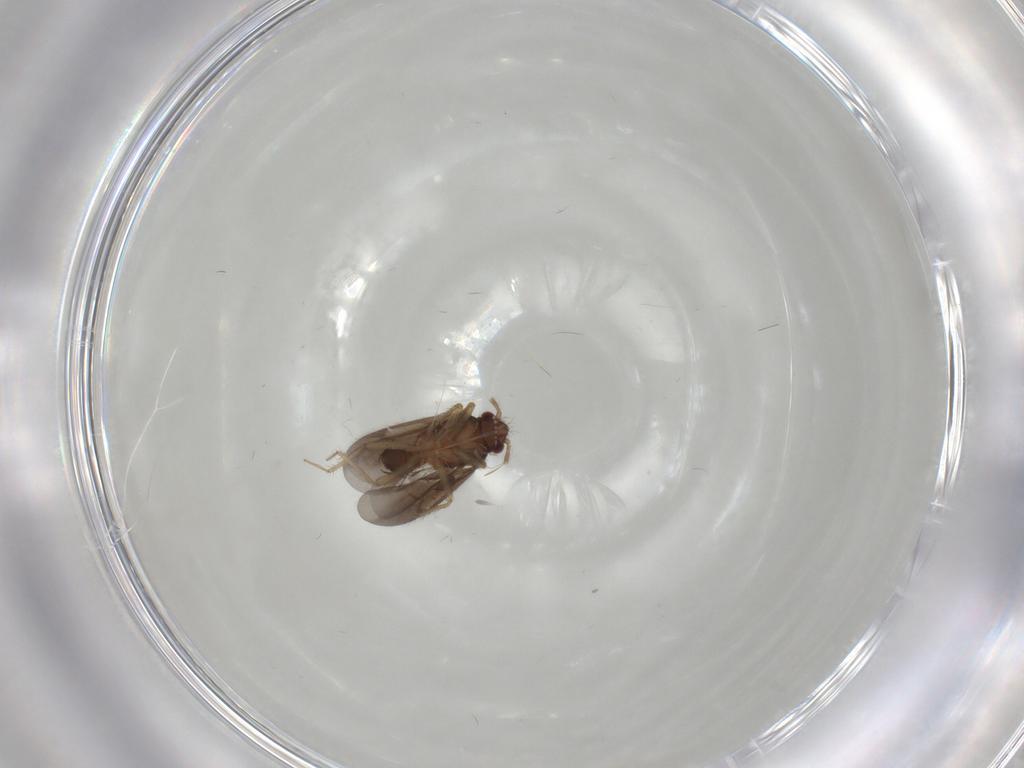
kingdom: Animalia
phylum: Arthropoda
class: Insecta
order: Hemiptera
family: Ceratocombidae
